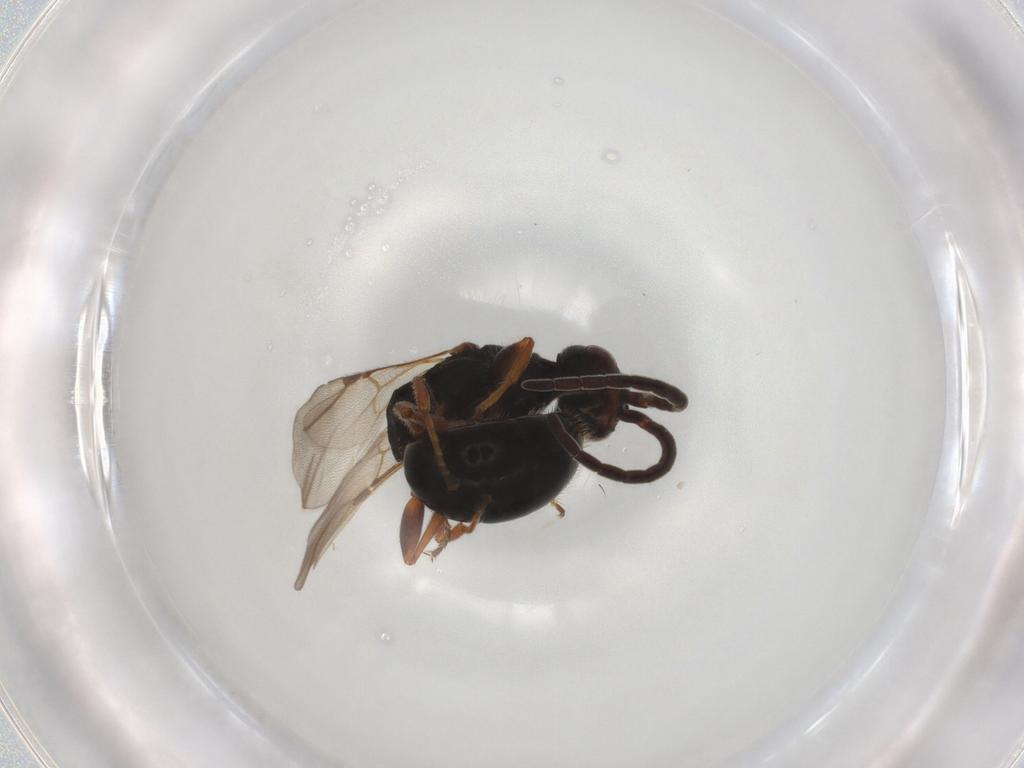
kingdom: Animalia
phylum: Arthropoda
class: Insecta
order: Hymenoptera
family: Bethylidae
